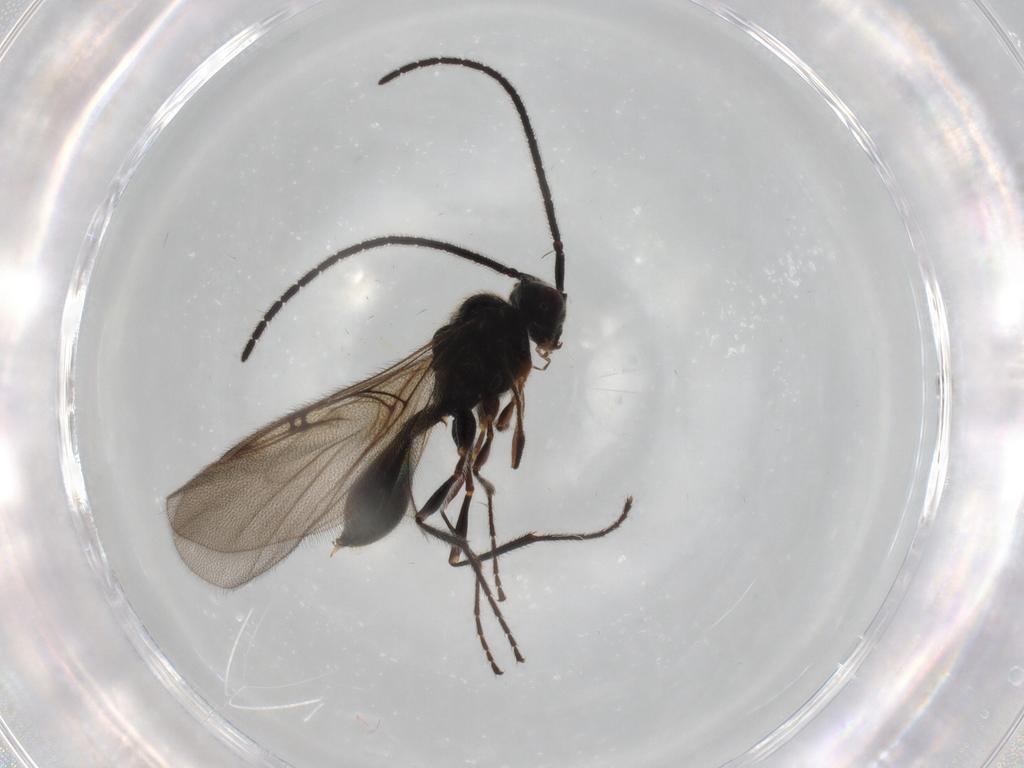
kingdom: Animalia
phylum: Arthropoda
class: Insecta
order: Hymenoptera
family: Diapriidae
